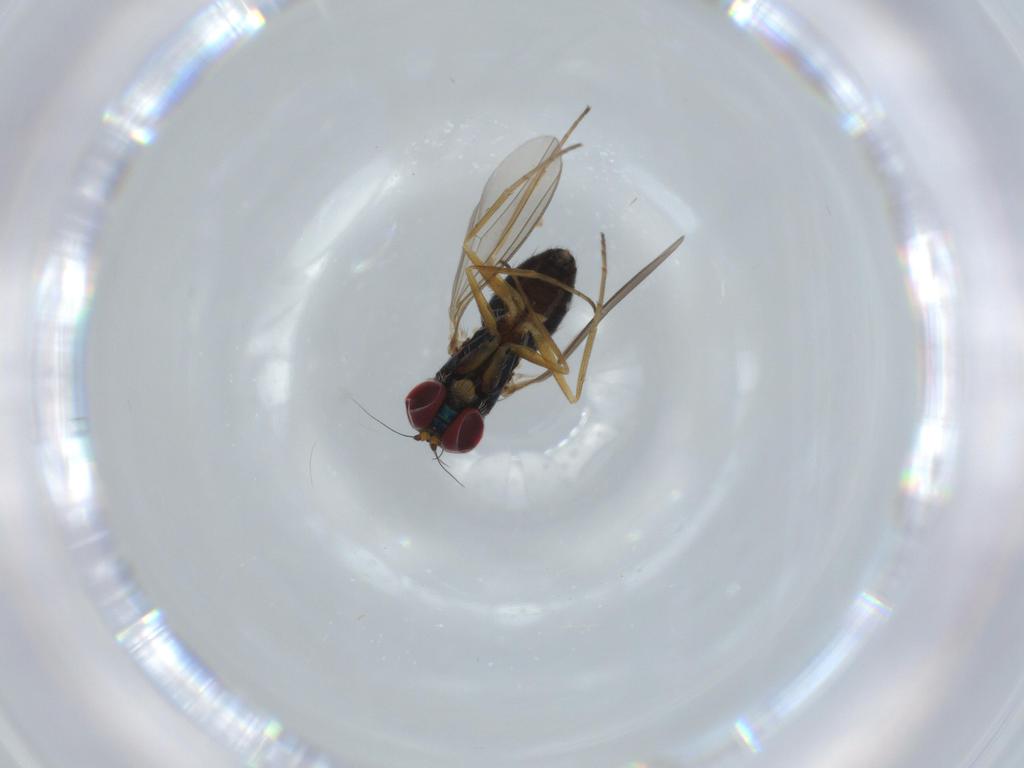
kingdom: Animalia
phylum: Arthropoda
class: Insecta
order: Diptera
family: Dolichopodidae
